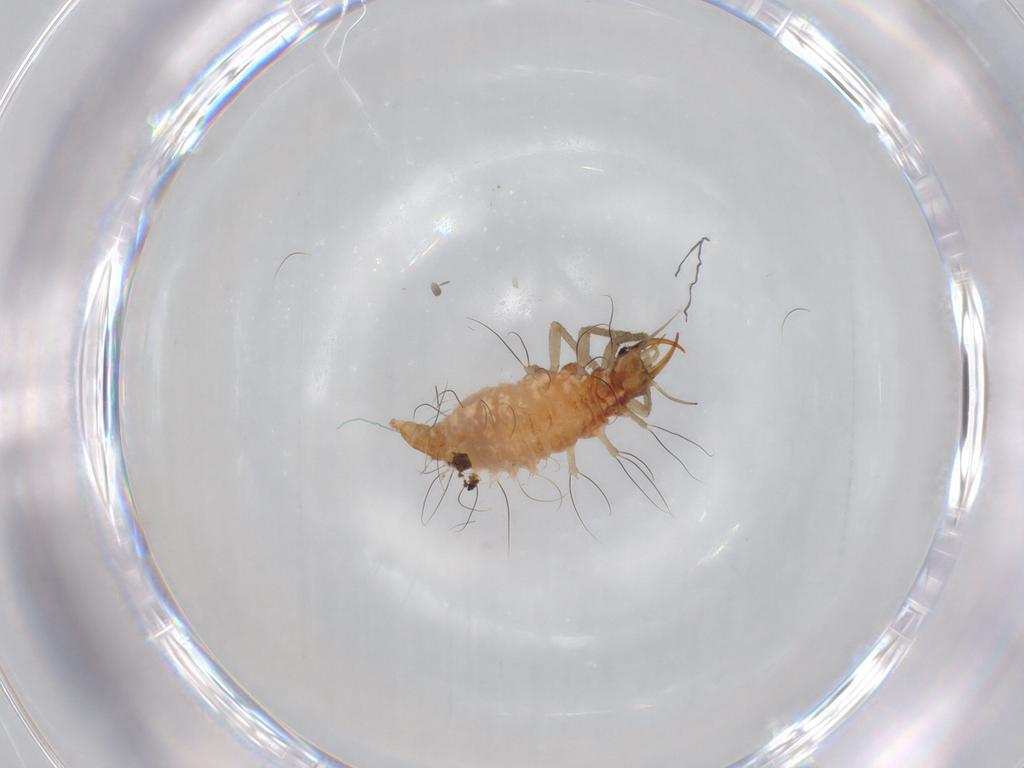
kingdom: Animalia
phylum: Arthropoda
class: Insecta
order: Neuroptera
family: Chrysopidae
